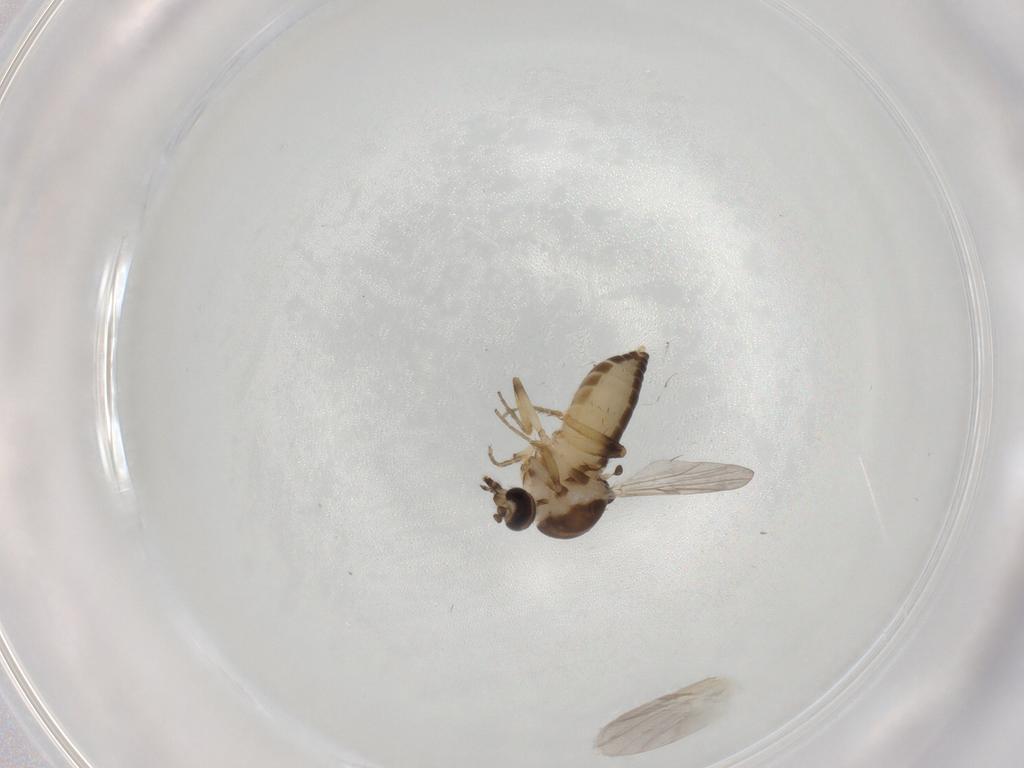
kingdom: Animalia
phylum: Arthropoda
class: Insecta
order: Diptera
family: Ceratopogonidae
